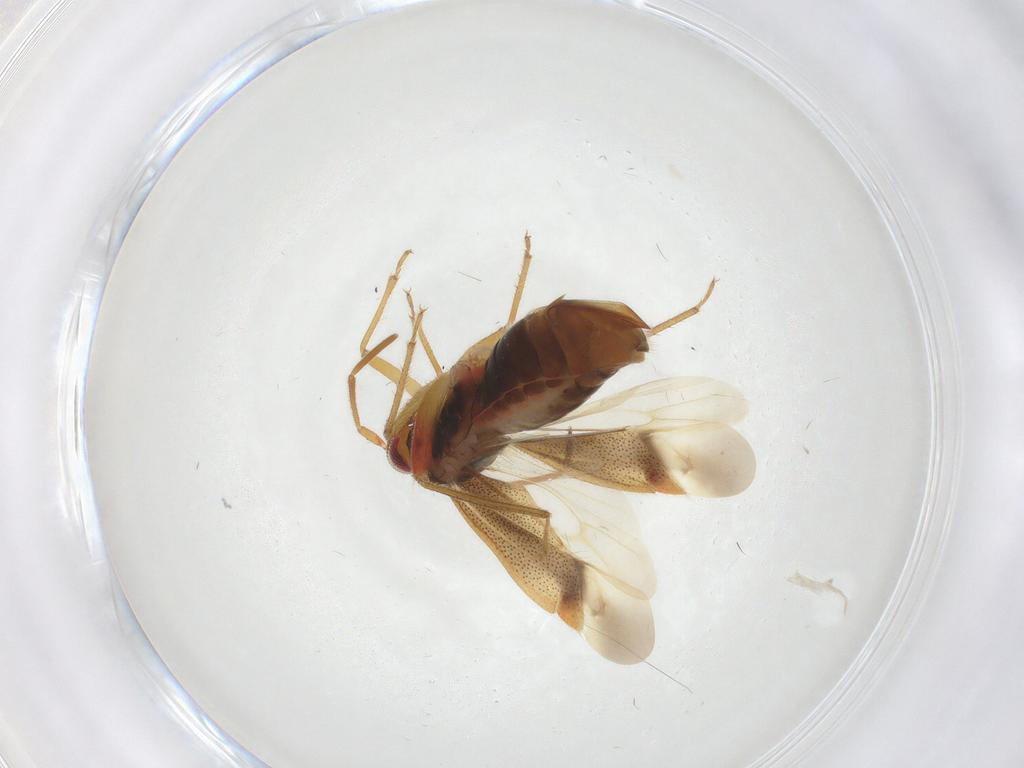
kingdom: Animalia
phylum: Arthropoda
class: Insecta
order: Hemiptera
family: Miridae
